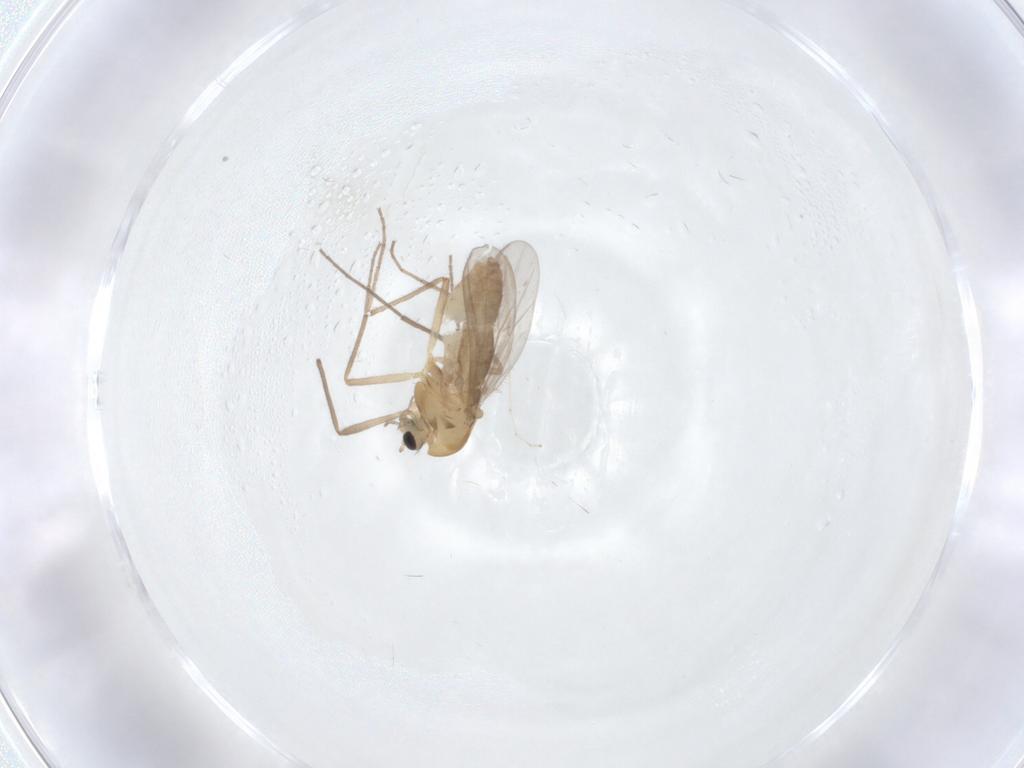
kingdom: Animalia
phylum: Arthropoda
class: Insecta
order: Diptera
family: Chironomidae
